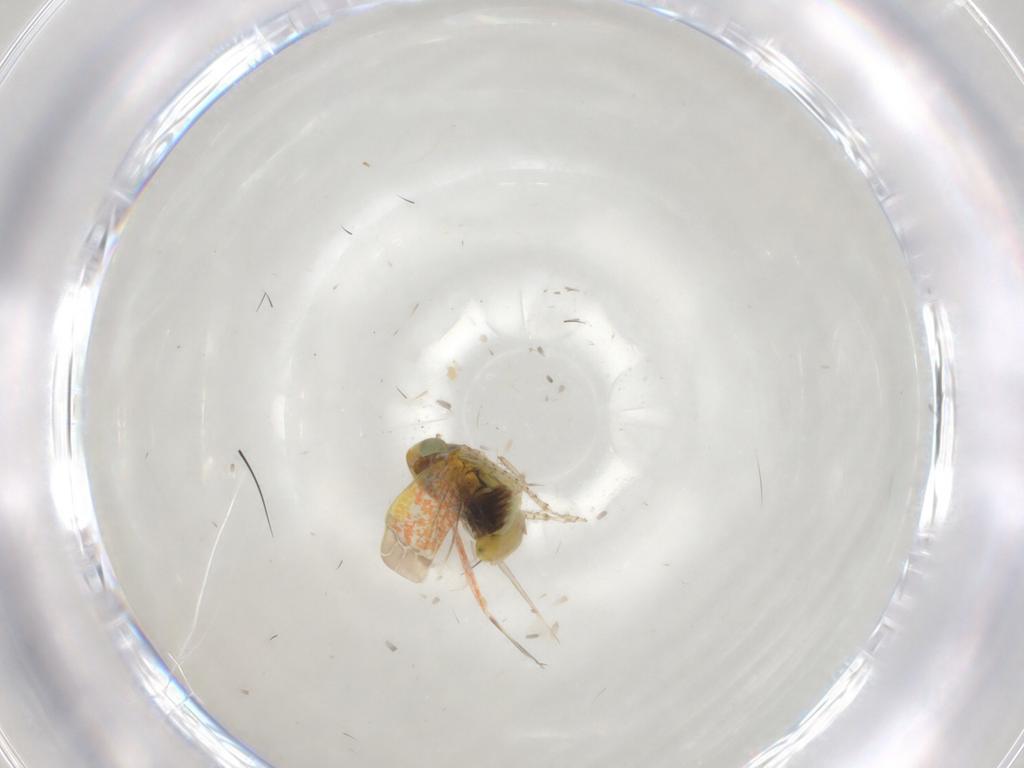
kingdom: Animalia
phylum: Arthropoda
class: Insecta
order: Hemiptera
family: Cicadellidae
